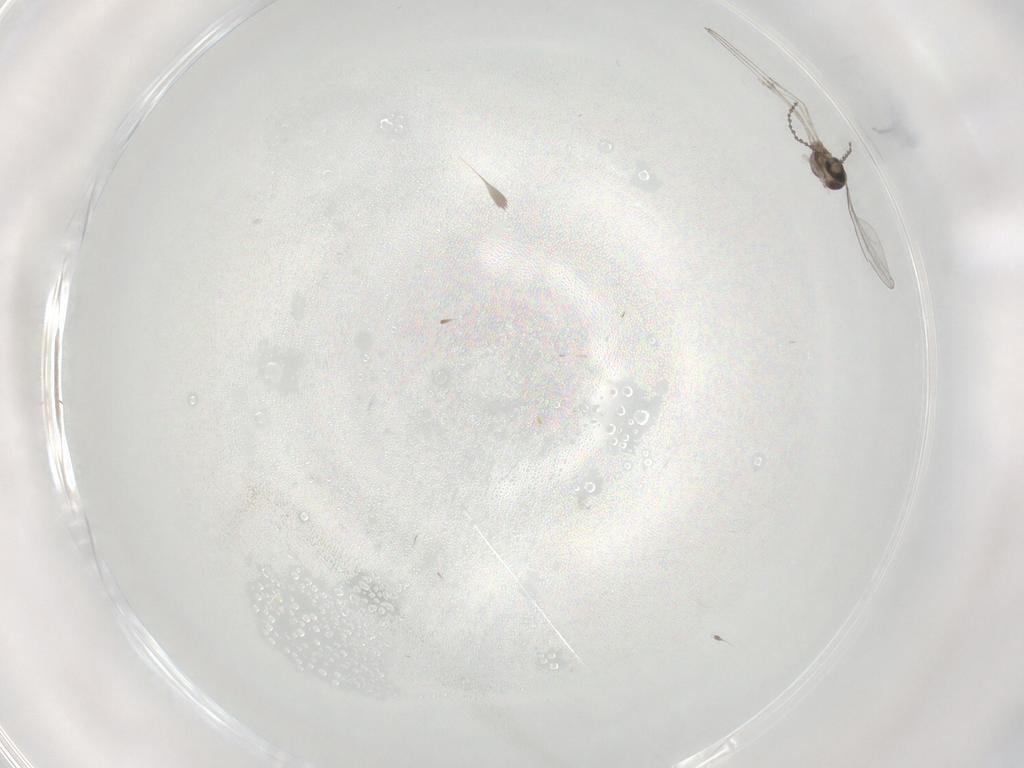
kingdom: Animalia
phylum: Arthropoda
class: Insecta
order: Diptera
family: Cecidomyiidae
